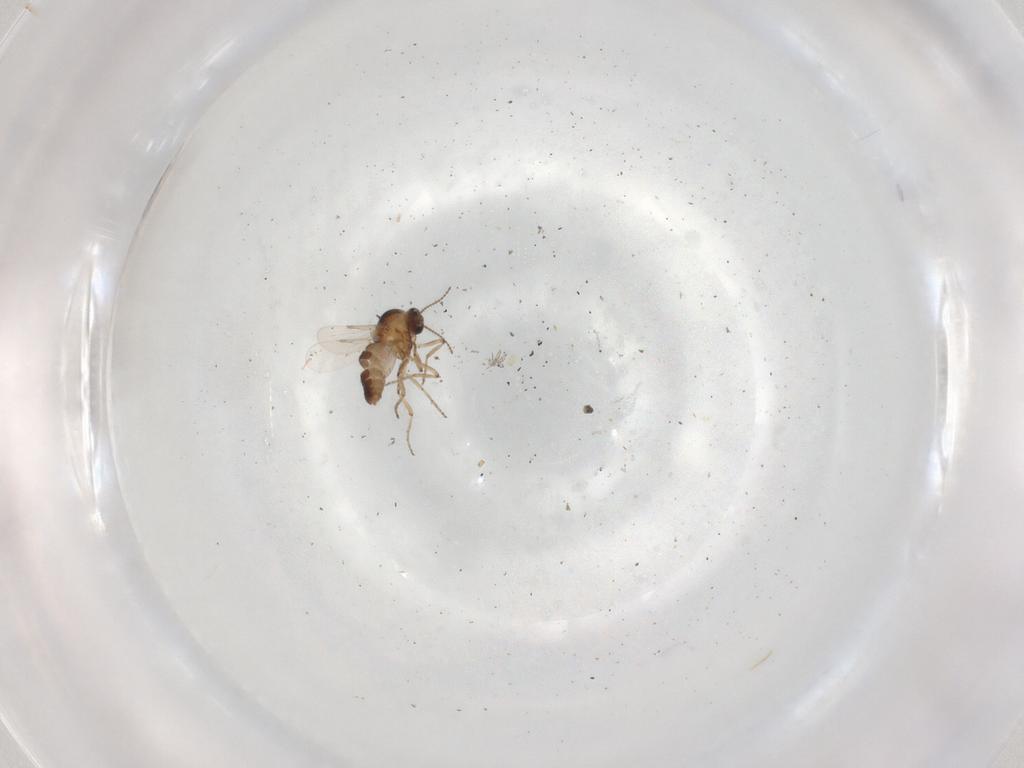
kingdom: Animalia
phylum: Arthropoda
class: Insecta
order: Diptera
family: Ceratopogonidae
